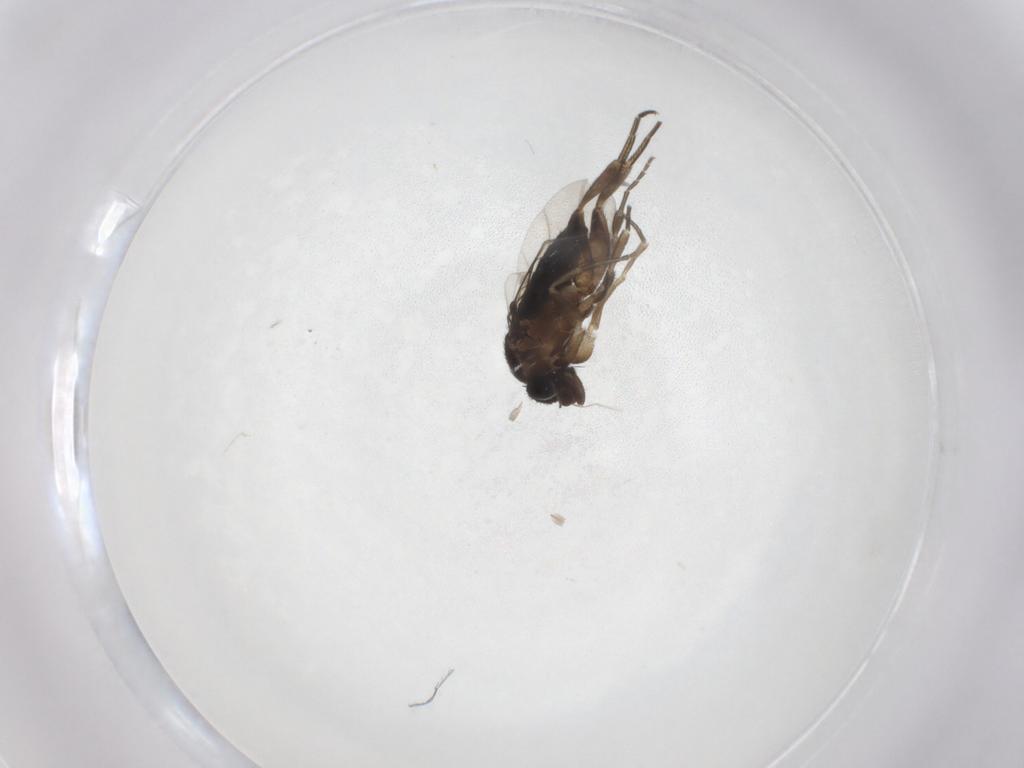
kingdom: Animalia
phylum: Arthropoda
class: Insecta
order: Diptera
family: Phoridae
